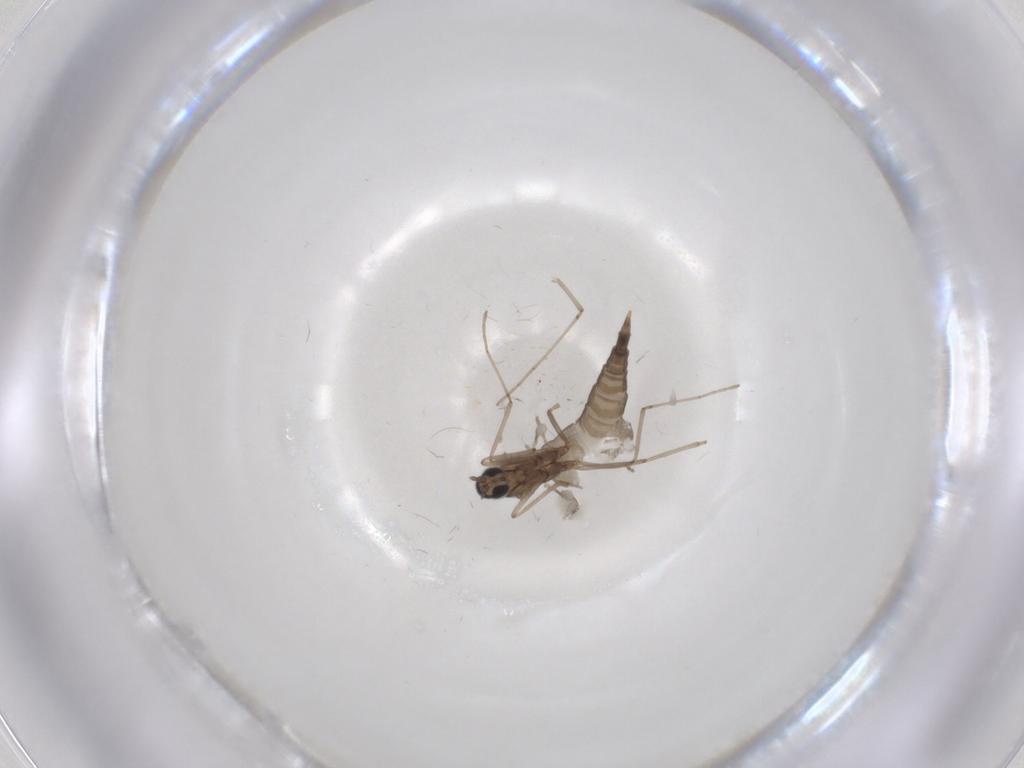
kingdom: Animalia
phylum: Arthropoda
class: Insecta
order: Diptera
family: Cecidomyiidae
